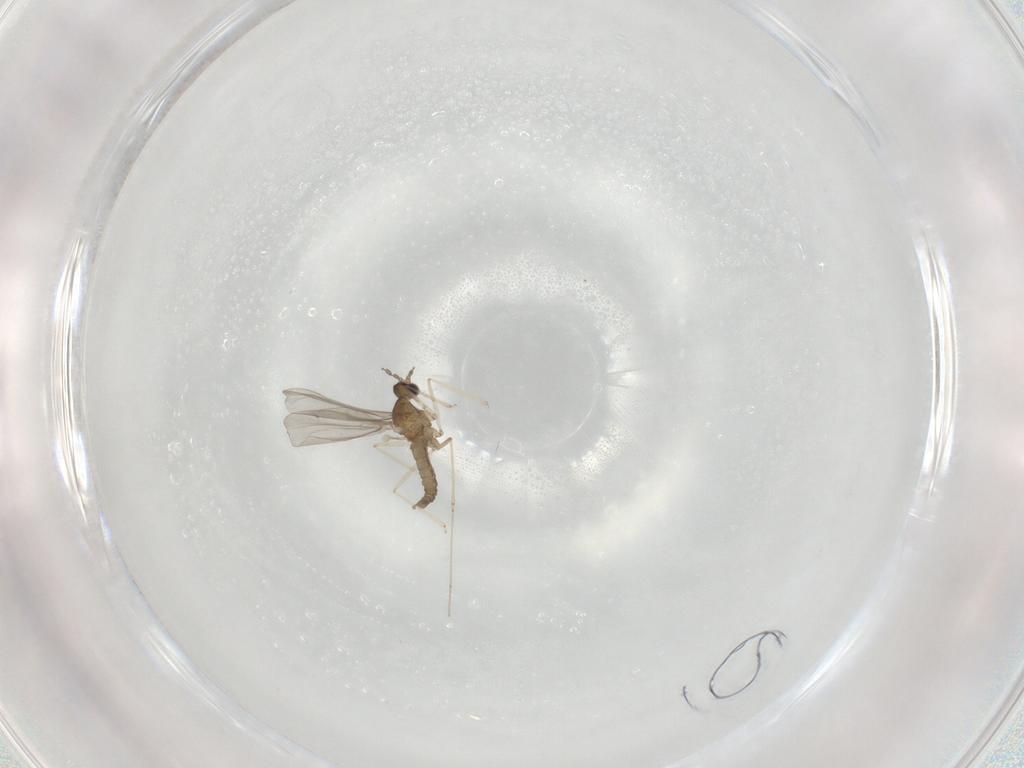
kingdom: Animalia
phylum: Arthropoda
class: Insecta
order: Diptera
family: Cecidomyiidae
